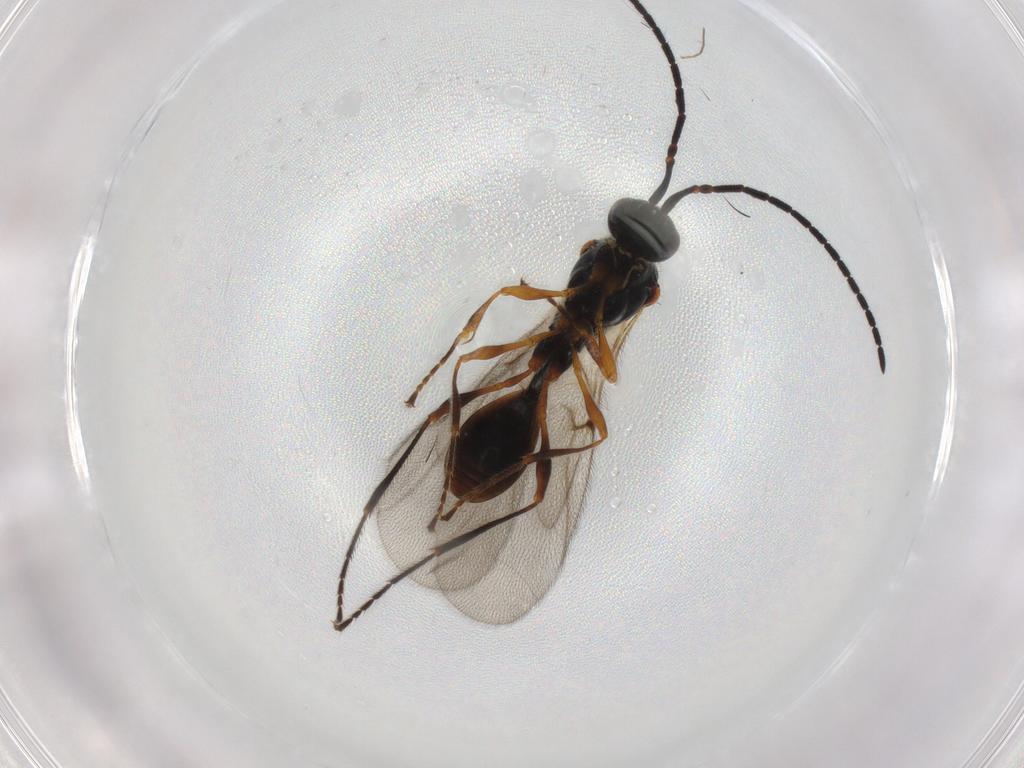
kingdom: Animalia
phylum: Arthropoda
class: Insecta
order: Hymenoptera
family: Diapriidae
